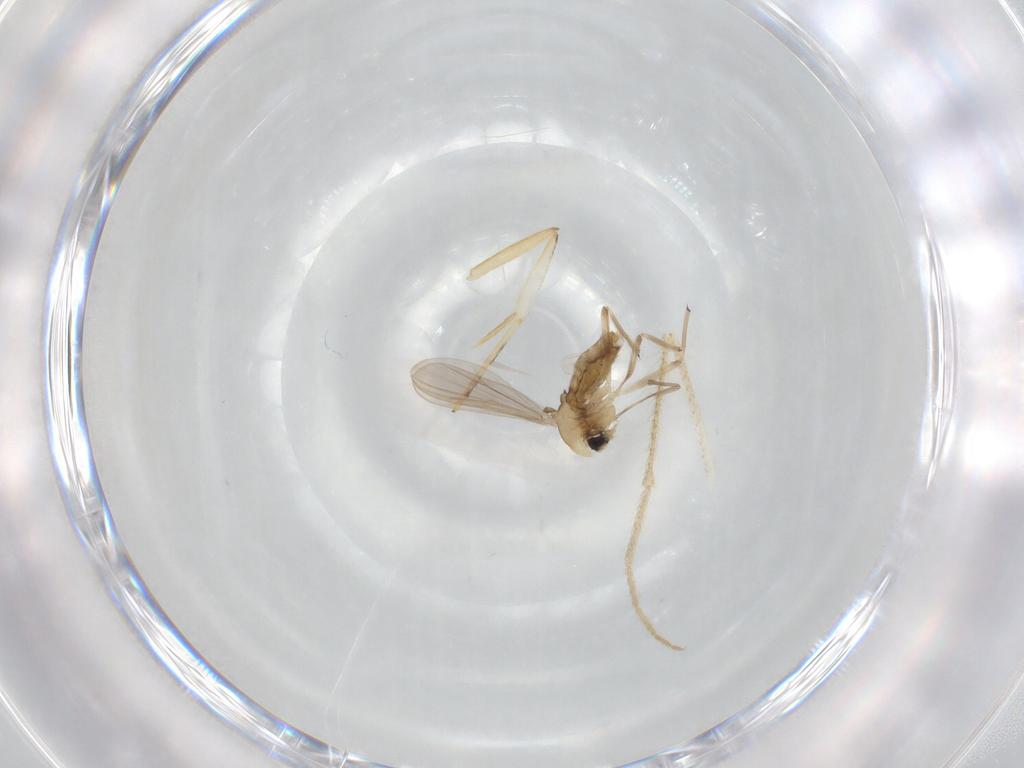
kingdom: Animalia
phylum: Arthropoda
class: Insecta
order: Diptera
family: Chironomidae
